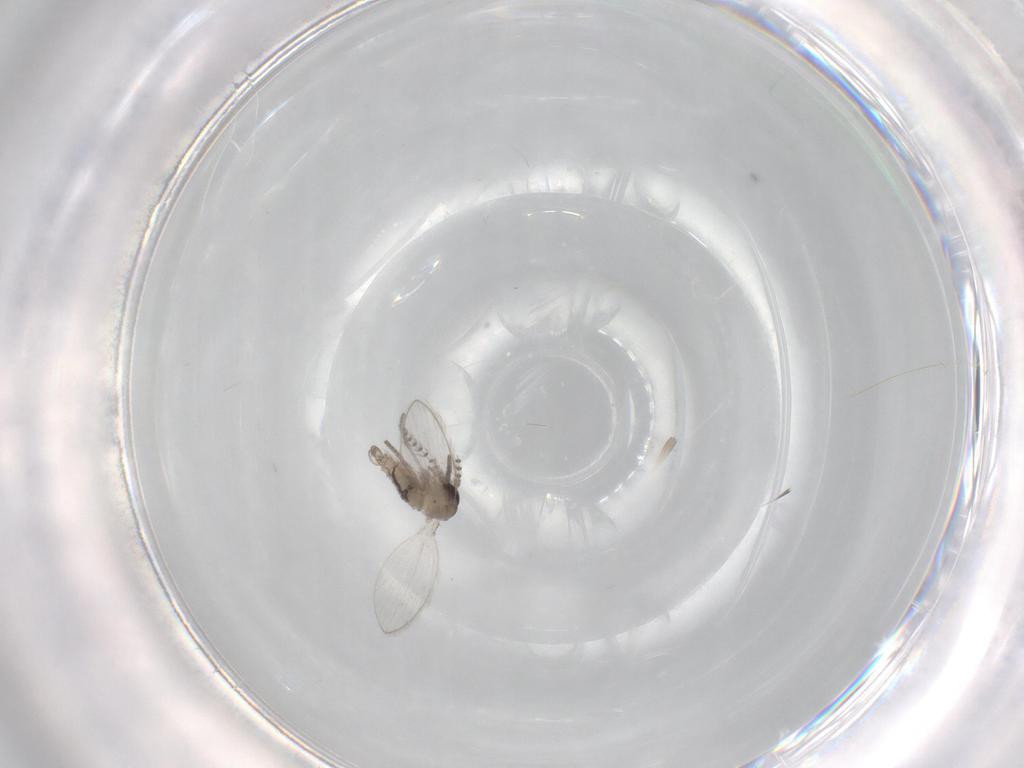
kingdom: Animalia
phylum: Arthropoda
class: Insecta
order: Diptera
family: Psychodidae
